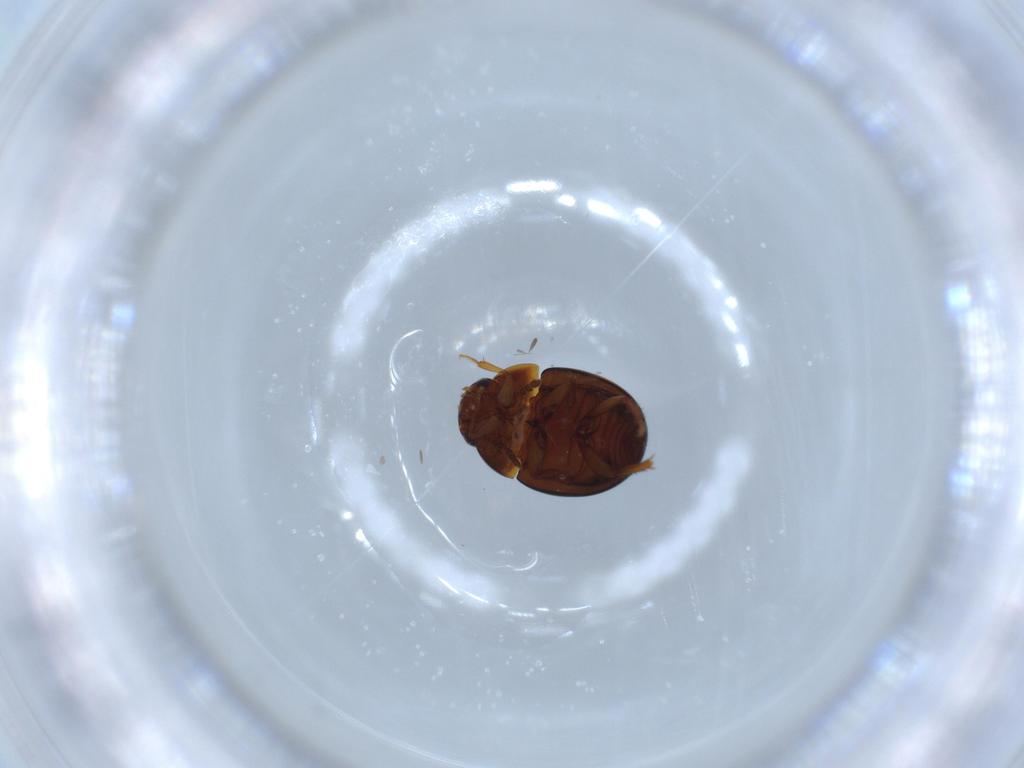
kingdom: Animalia
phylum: Arthropoda
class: Insecta
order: Coleoptera
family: Leiodidae
